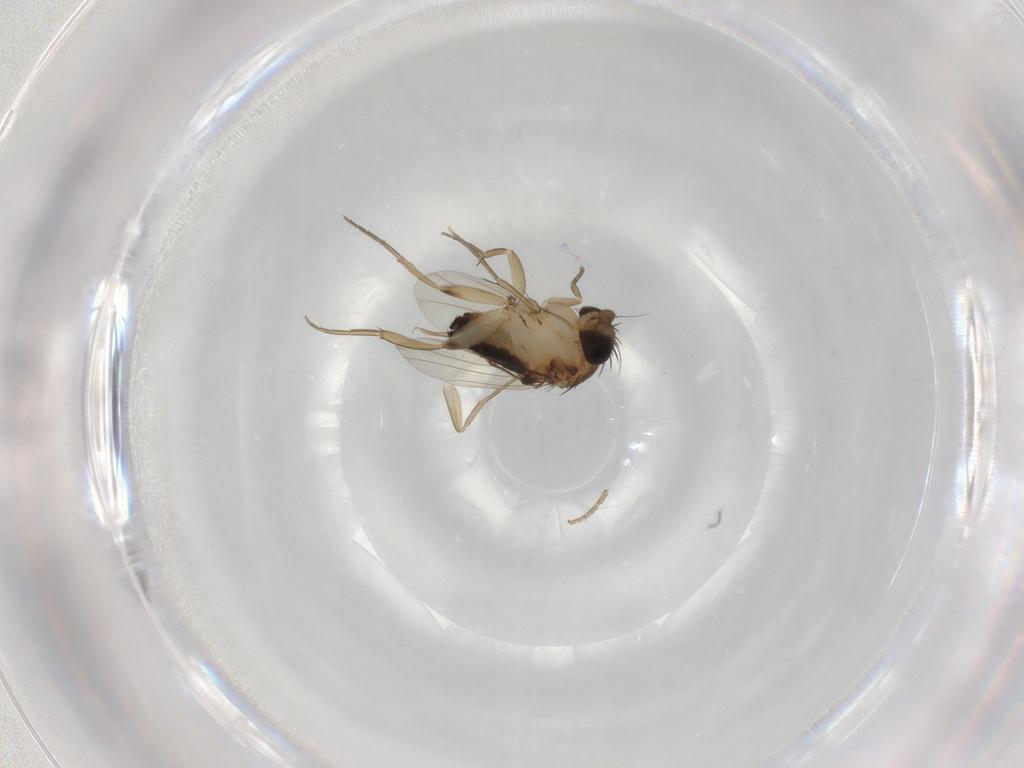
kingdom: Animalia
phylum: Arthropoda
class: Insecta
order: Diptera
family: Phoridae
